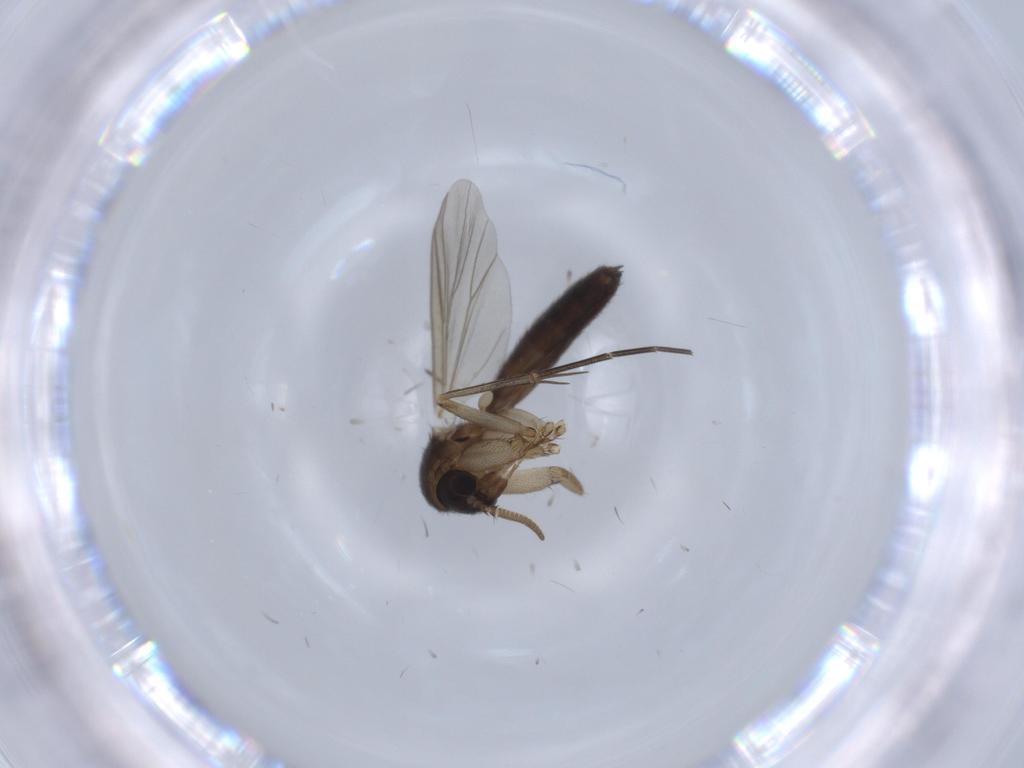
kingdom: Animalia
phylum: Arthropoda
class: Insecta
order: Diptera
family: Mycetophilidae
